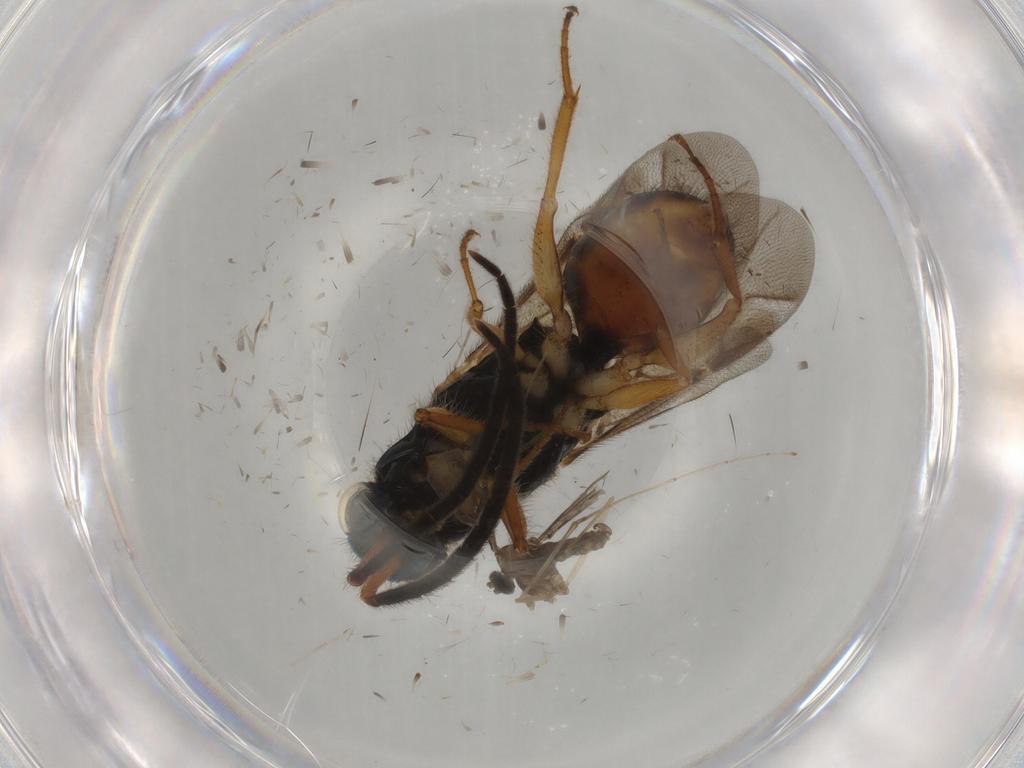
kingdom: Animalia
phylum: Arthropoda
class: Insecta
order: Hymenoptera
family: Chrysididae
